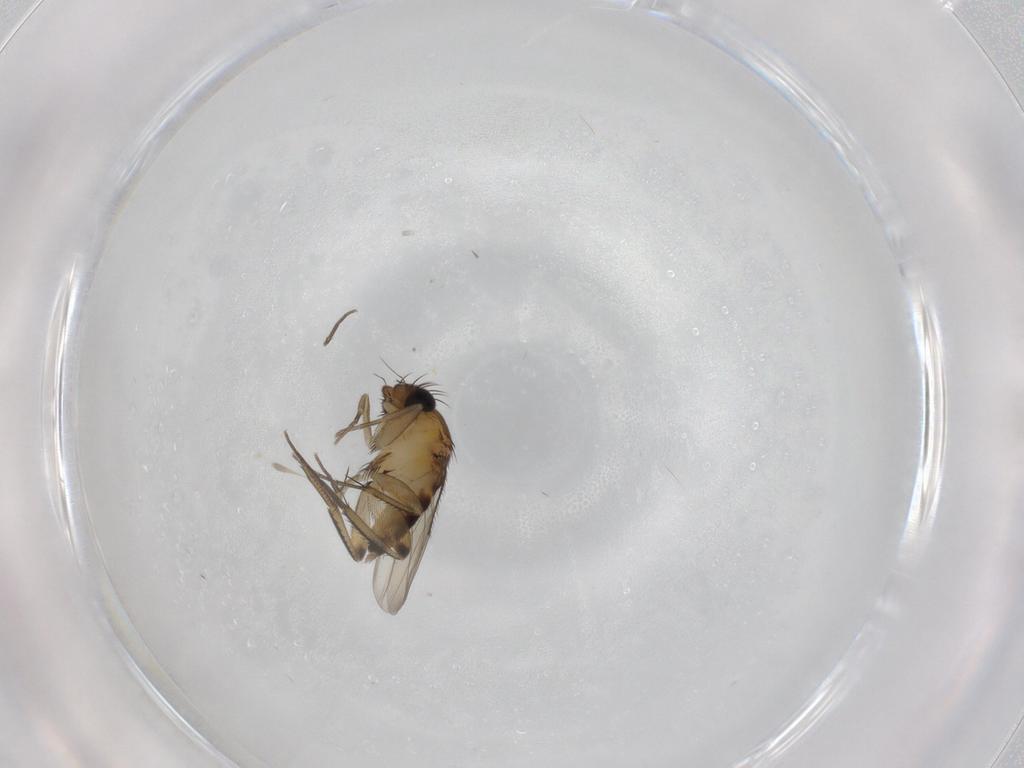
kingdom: Animalia
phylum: Arthropoda
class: Insecta
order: Diptera
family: Phoridae
